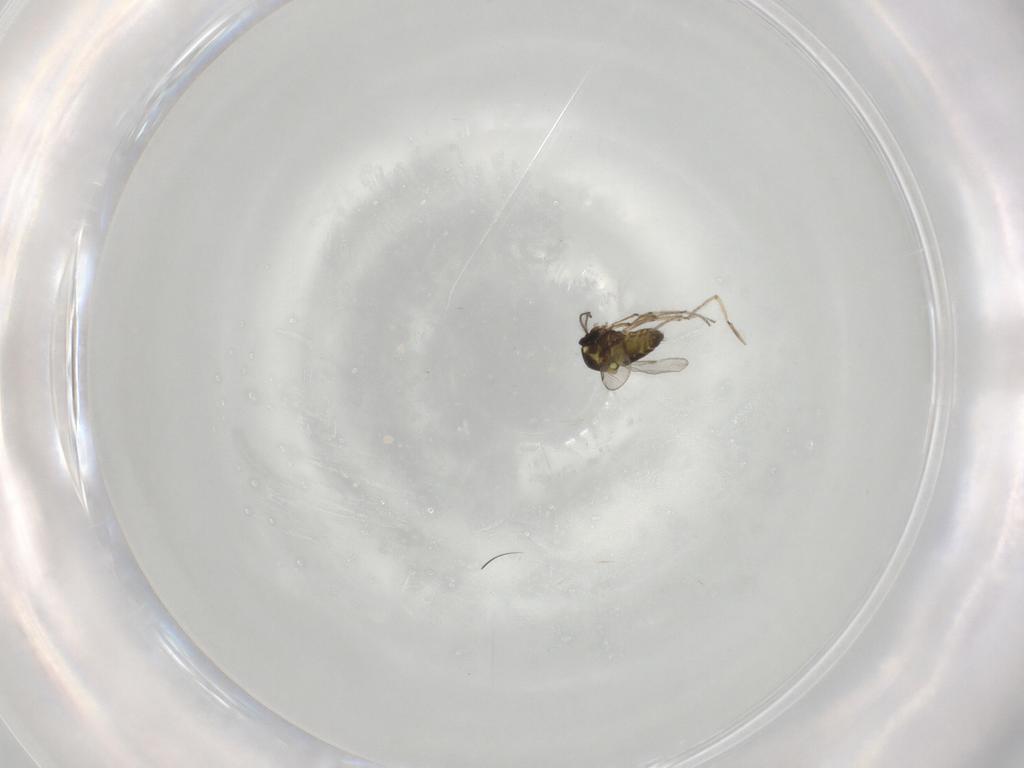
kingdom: Animalia
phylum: Arthropoda
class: Insecta
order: Diptera
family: Ceratopogonidae
